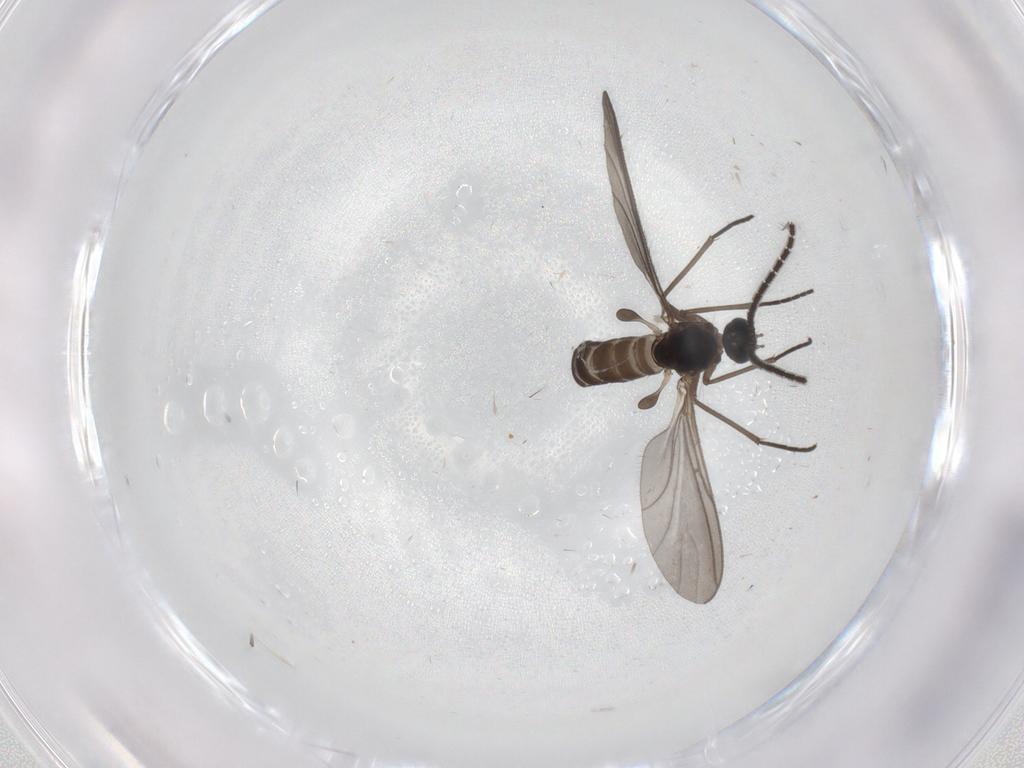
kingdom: Animalia
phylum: Arthropoda
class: Insecta
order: Diptera
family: Sciaridae
